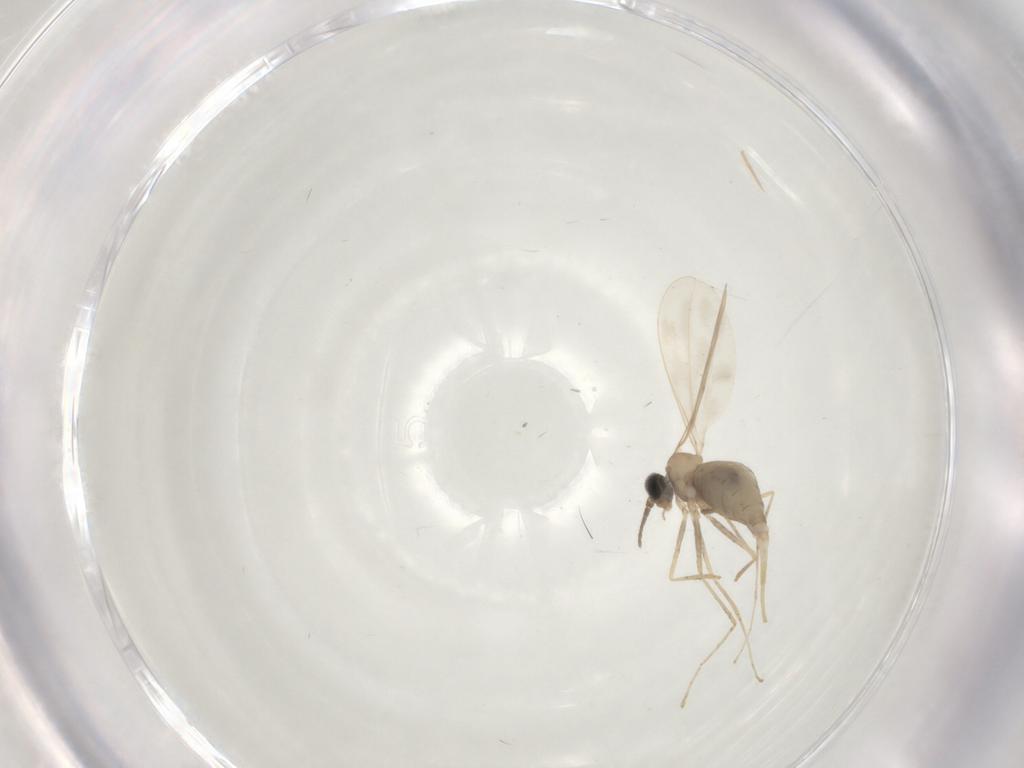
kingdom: Animalia
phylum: Arthropoda
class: Insecta
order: Diptera
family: Cecidomyiidae
